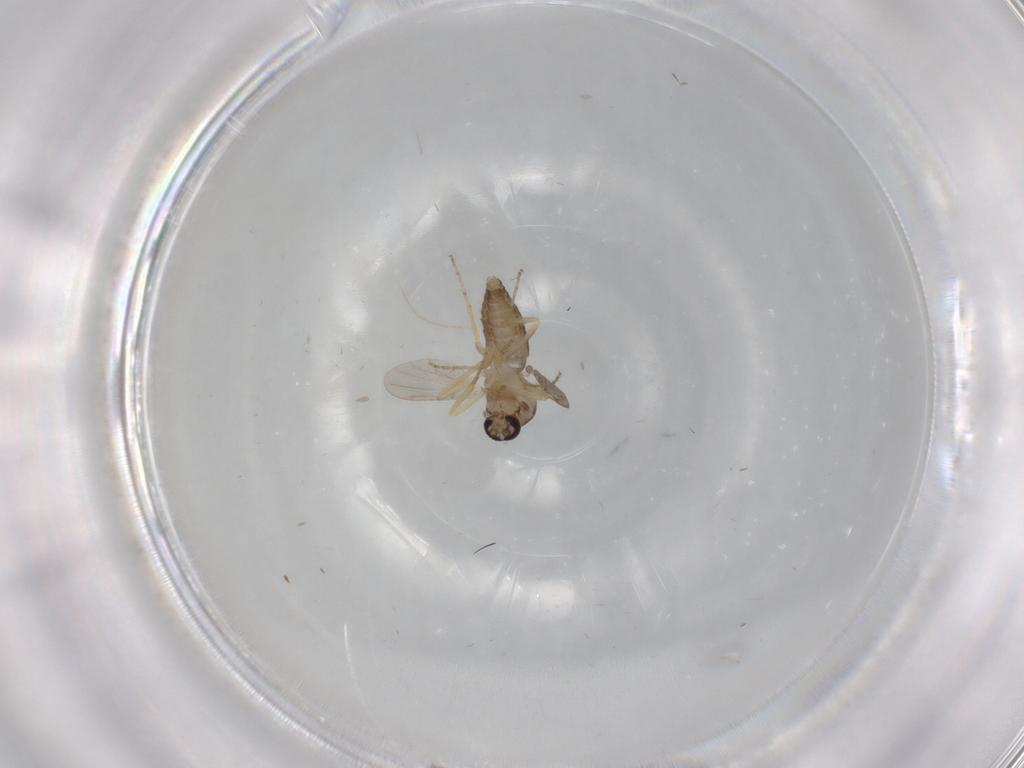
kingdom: Animalia
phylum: Arthropoda
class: Insecta
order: Diptera
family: Ceratopogonidae
